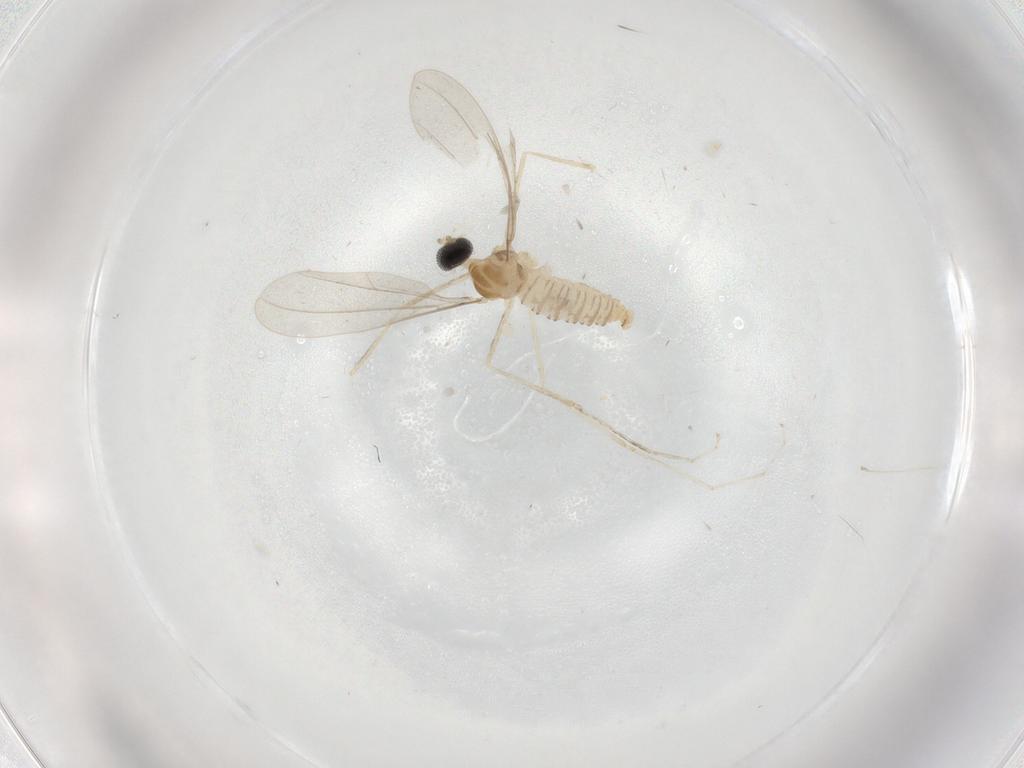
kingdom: Animalia
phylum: Arthropoda
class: Insecta
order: Diptera
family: Cecidomyiidae
